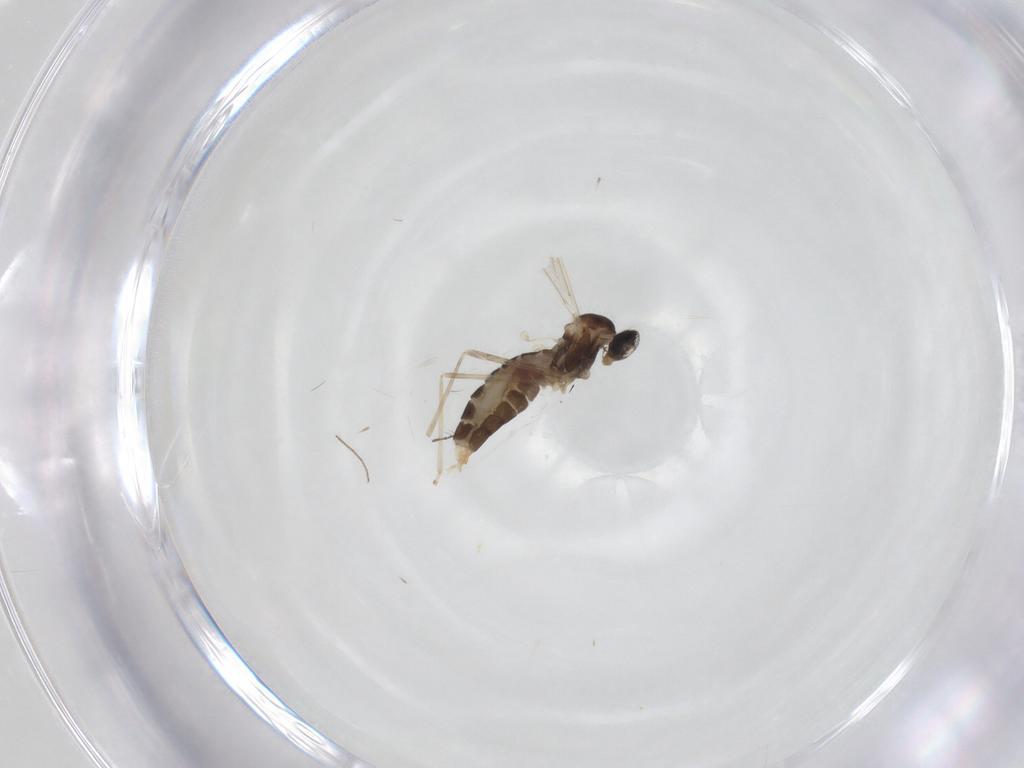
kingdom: Animalia
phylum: Arthropoda
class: Insecta
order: Diptera
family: Cecidomyiidae
